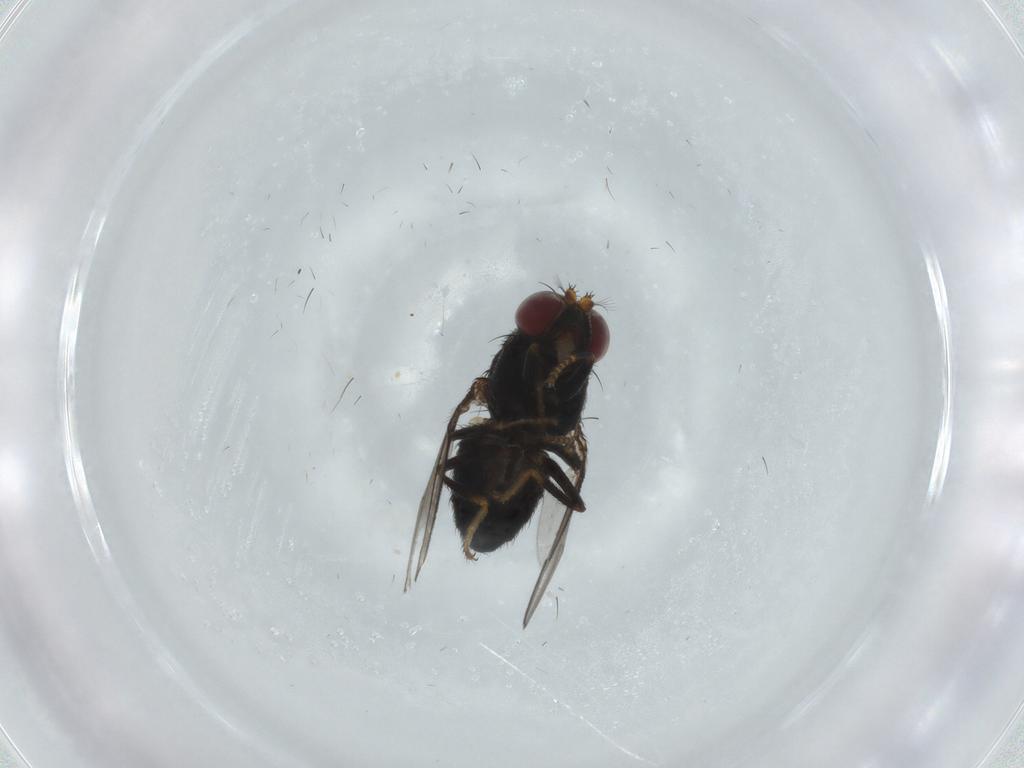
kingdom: Animalia
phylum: Arthropoda
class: Insecta
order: Diptera
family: Ephydridae
